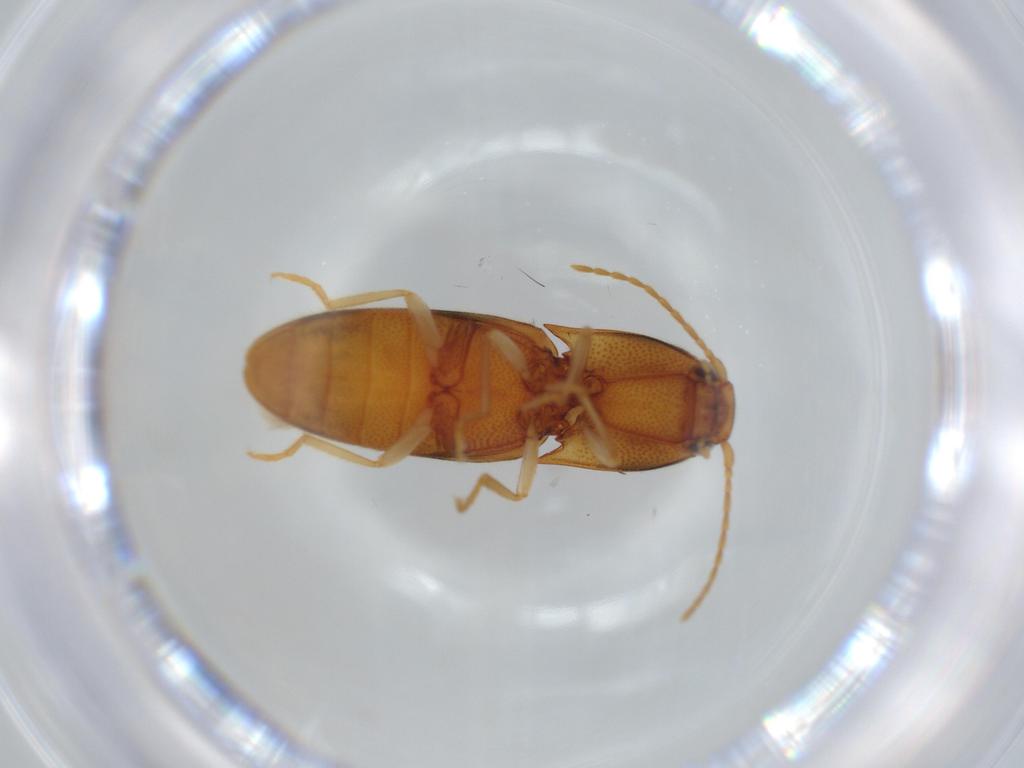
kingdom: Animalia
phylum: Arthropoda
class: Insecta
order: Coleoptera
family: Elateridae
